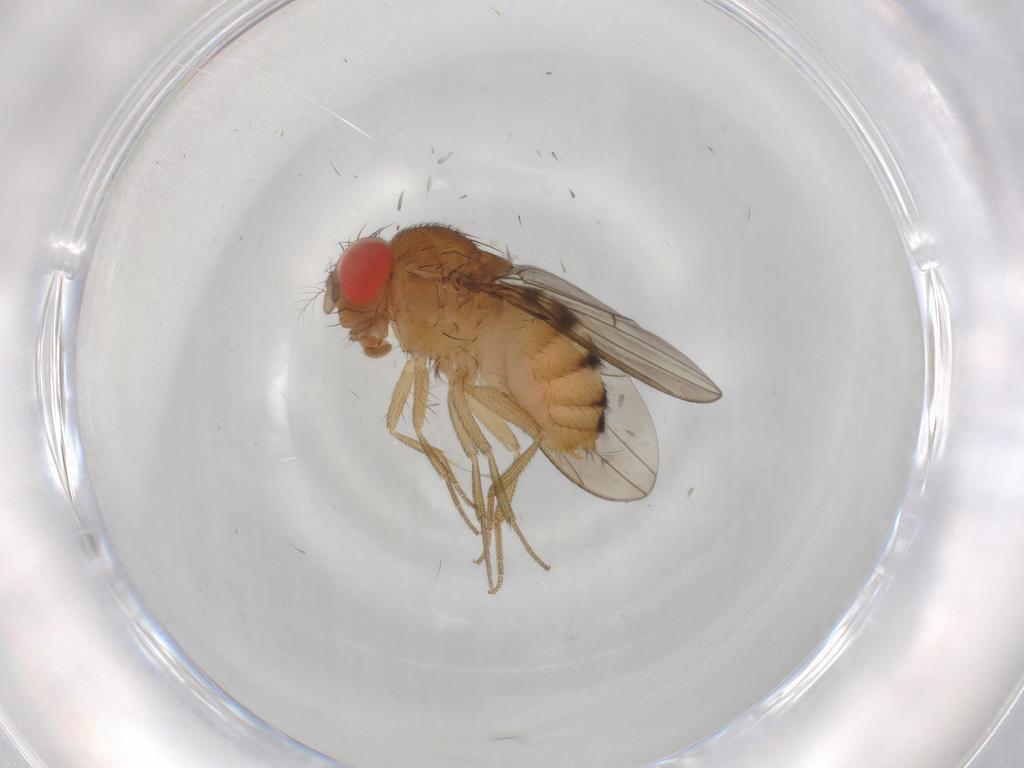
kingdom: Animalia
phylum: Arthropoda
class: Insecta
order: Diptera
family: Drosophilidae
